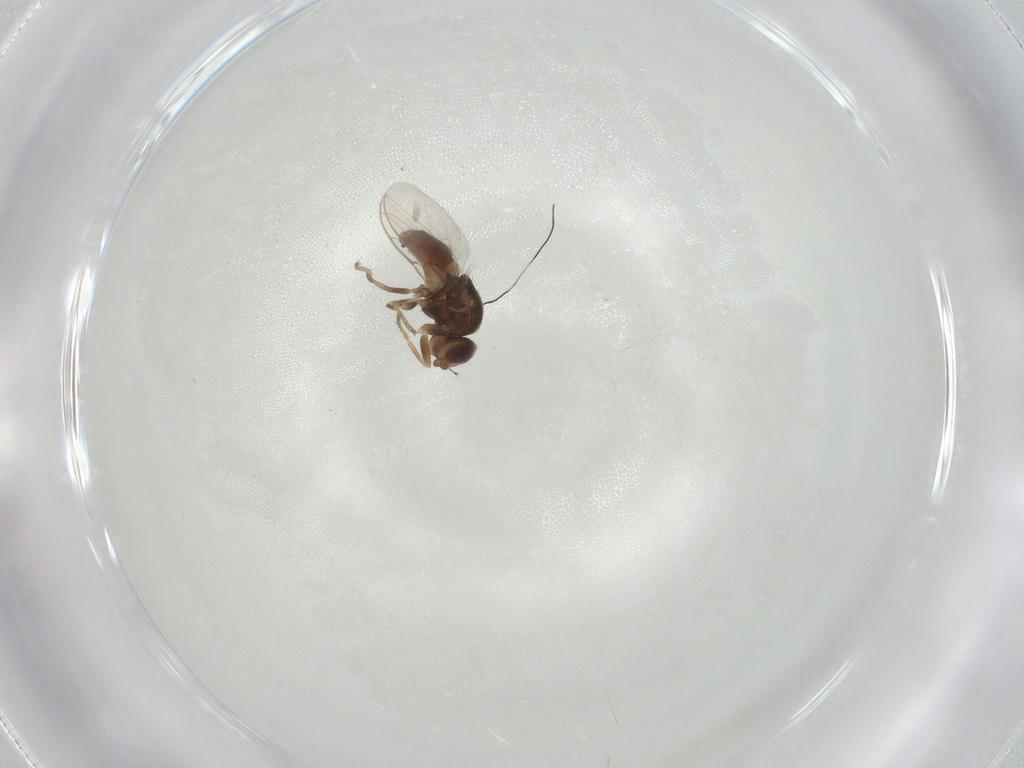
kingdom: Animalia
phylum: Arthropoda
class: Insecta
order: Diptera
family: Chloropidae
